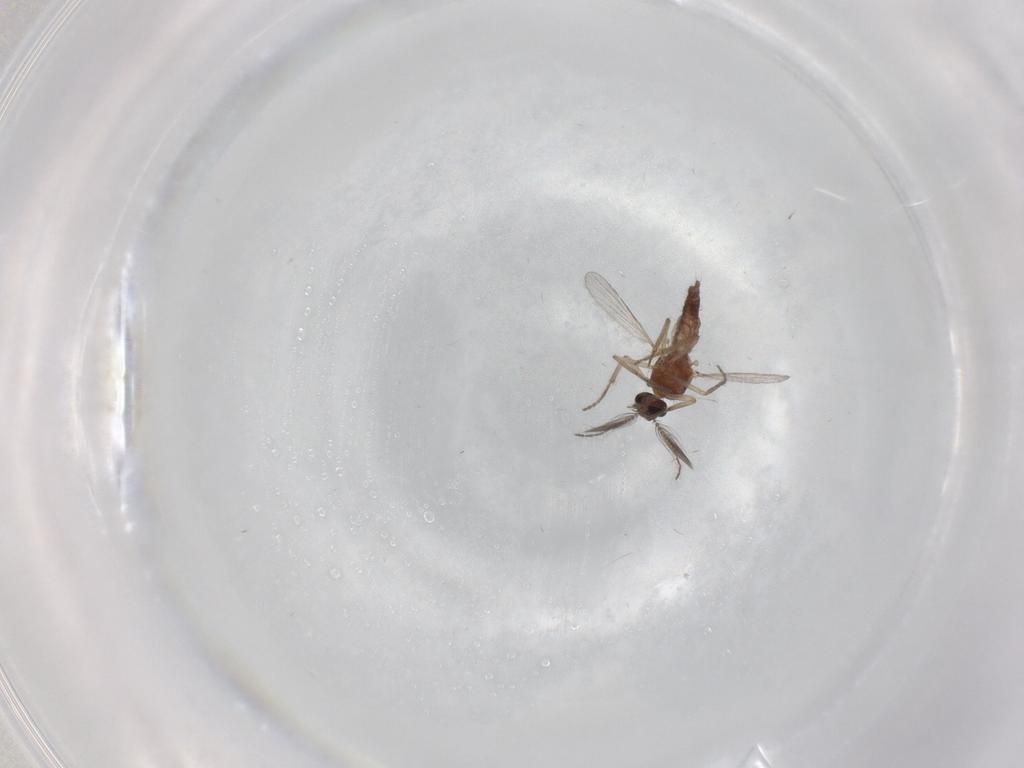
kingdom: Animalia
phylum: Arthropoda
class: Insecta
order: Diptera
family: Ceratopogonidae
